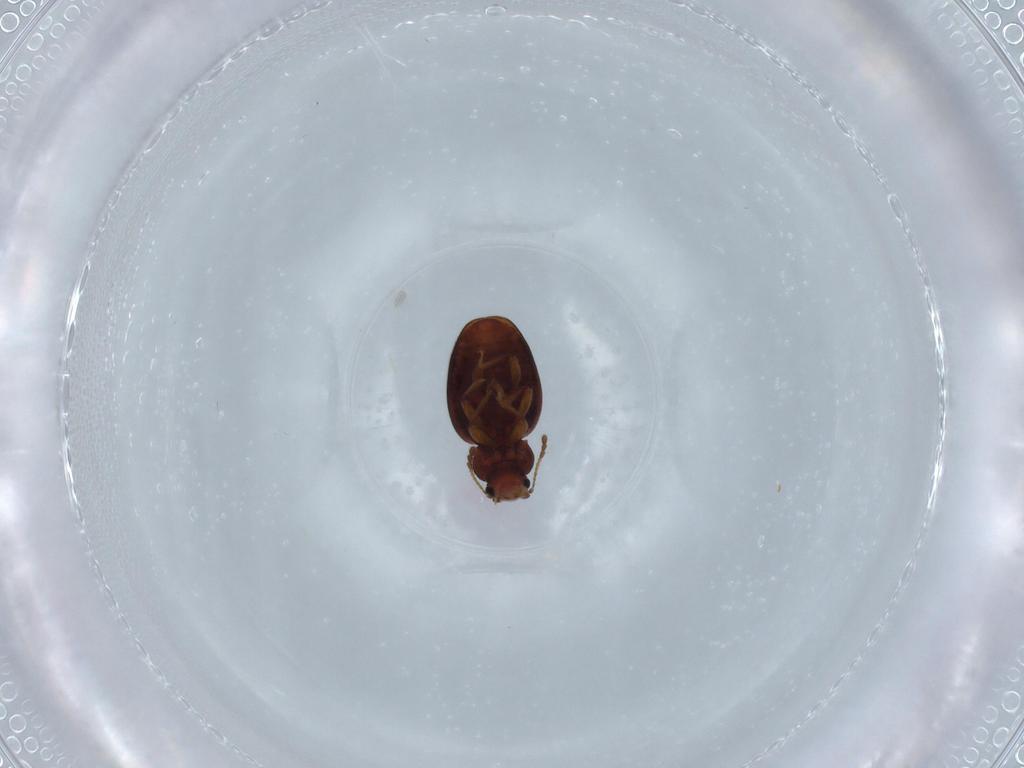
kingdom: Animalia
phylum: Arthropoda
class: Insecta
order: Coleoptera
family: Latridiidae
